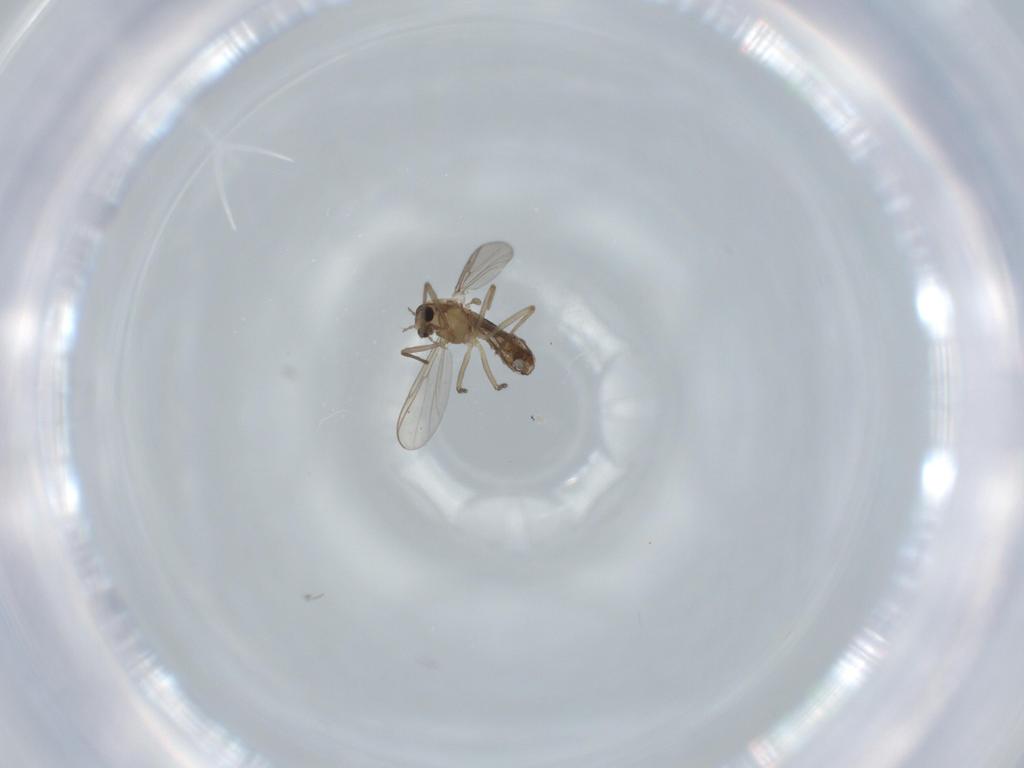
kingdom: Animalia
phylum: Arthropoda
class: Insecta
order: Diptera
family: Chironomidae
